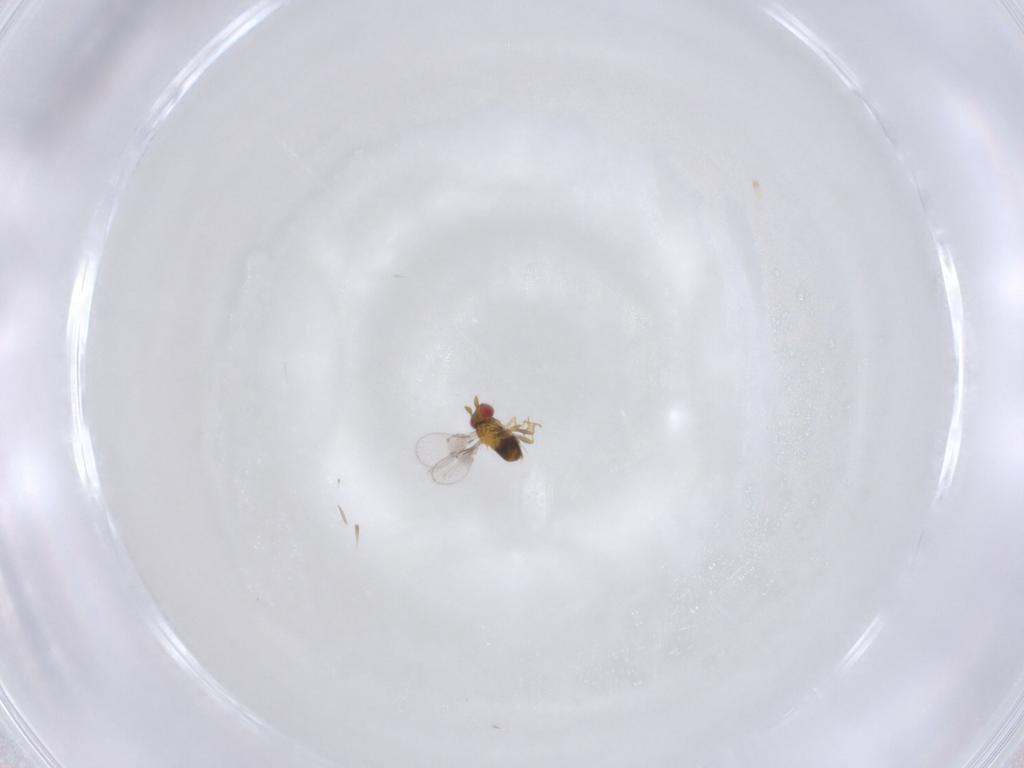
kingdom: Animalia
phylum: Arthropoda
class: Insecta
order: Hymenoptera
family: Trichogrammatidae
